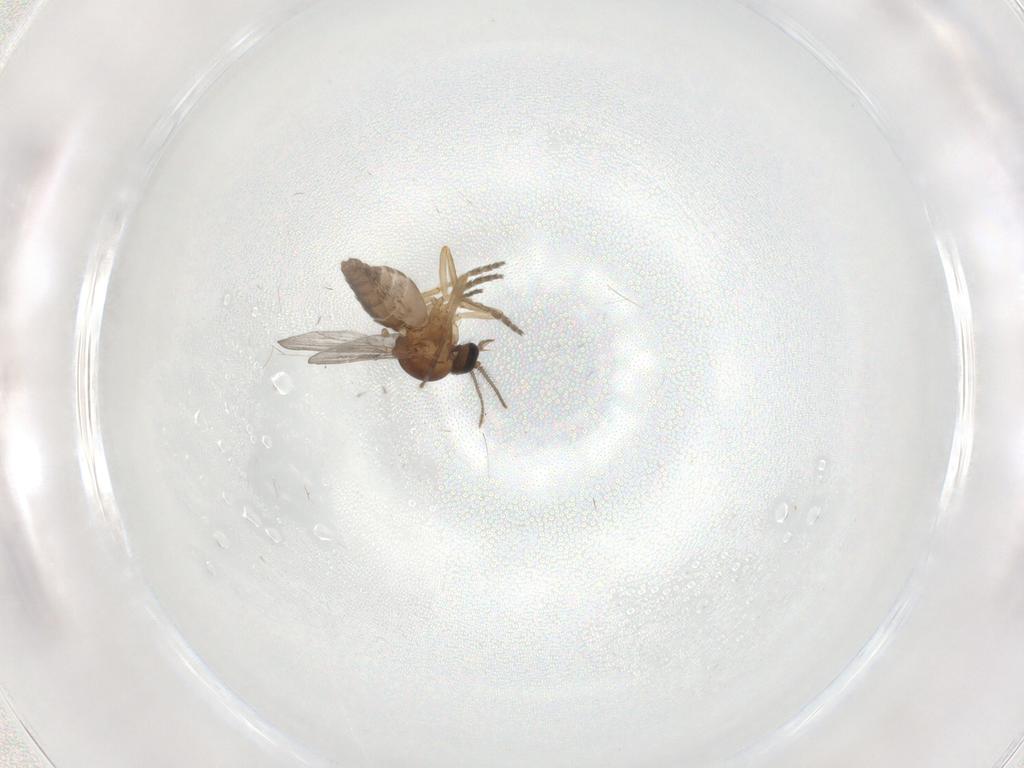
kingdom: Animalia
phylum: Arthropoda
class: Insecta
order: Diptera
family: Ceratopogonidae
